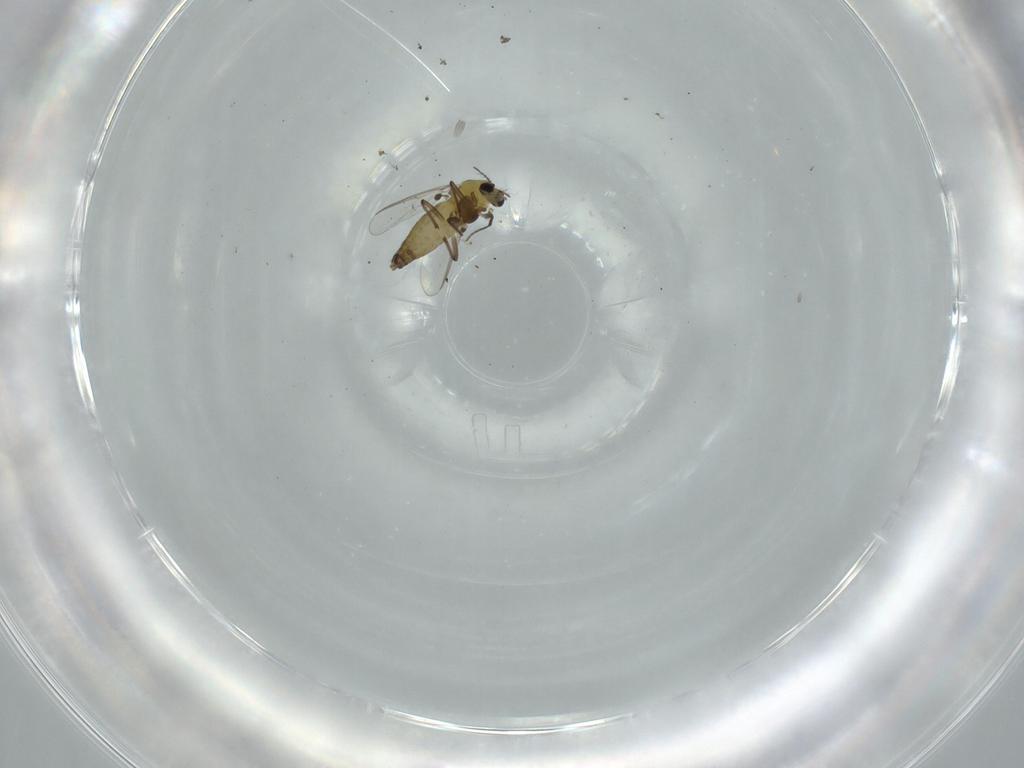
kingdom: Animalia
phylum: Arthropoda
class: Insecta
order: Diptera
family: Chironomidae
